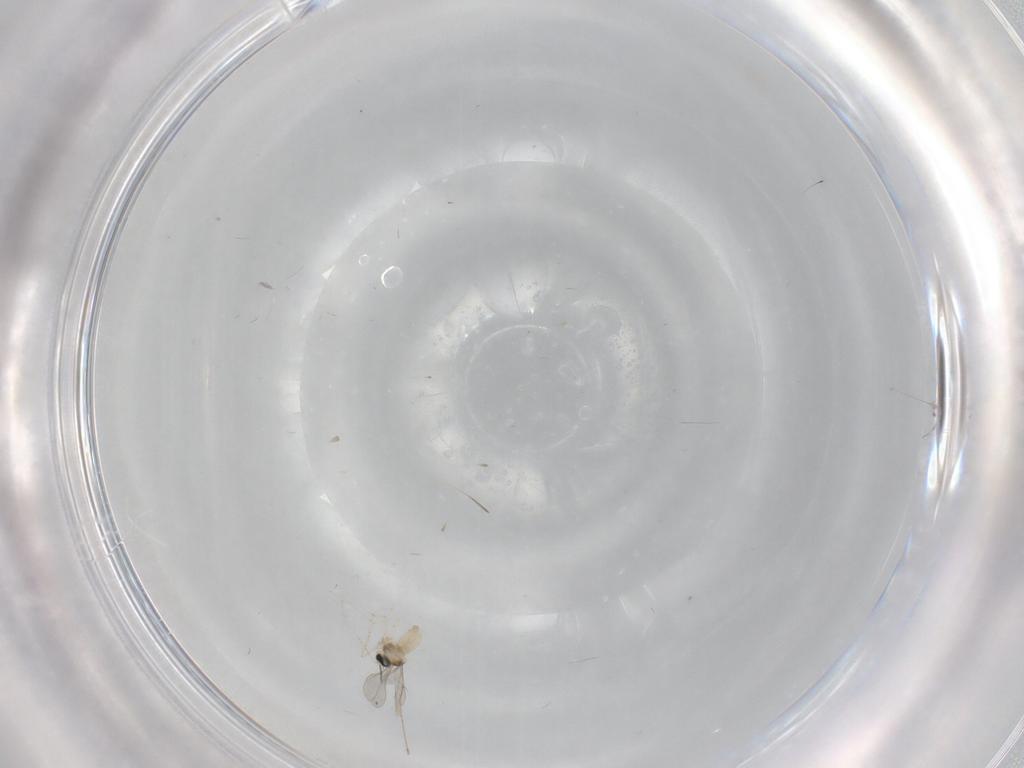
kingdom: Animalia
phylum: Arthropoda
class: Insecta
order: Diptera
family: Cecidomyiidae
